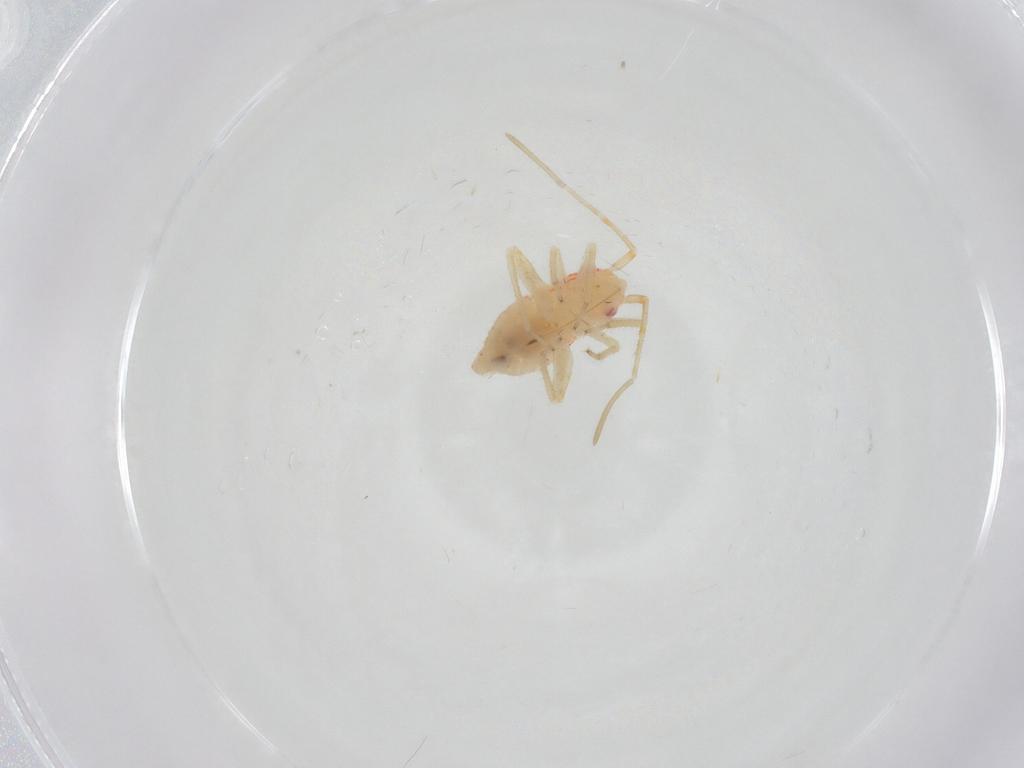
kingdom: Animalia
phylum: Arthropoda
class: Insecta
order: Hemiptera
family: Miridae
